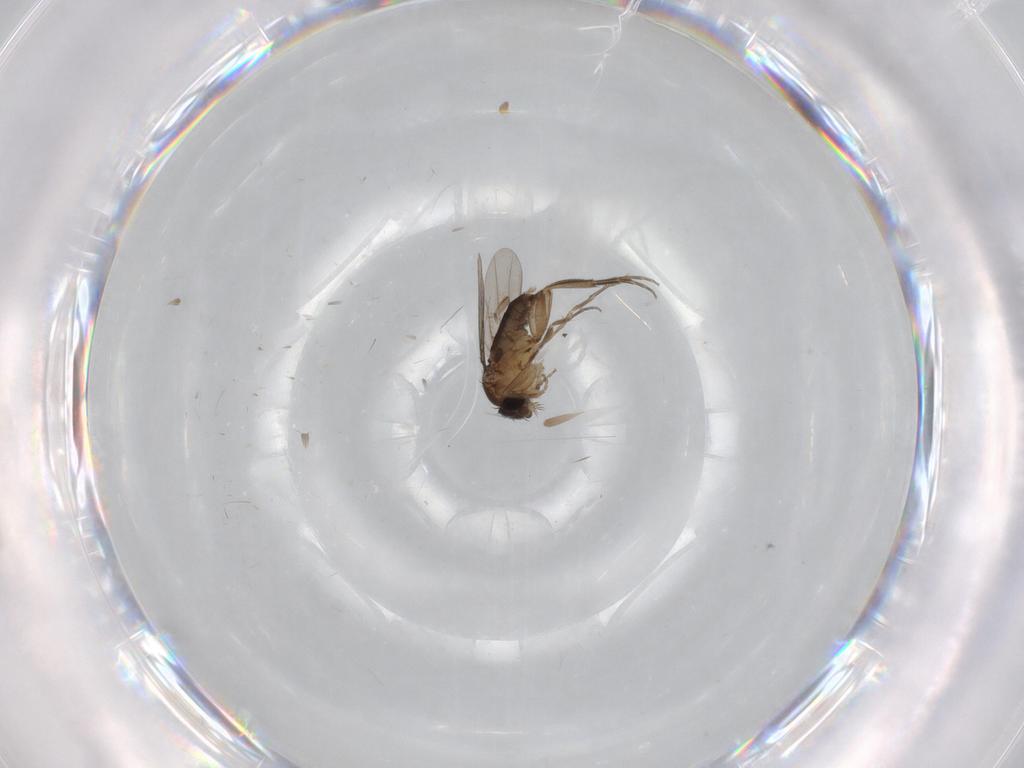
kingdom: Animalia
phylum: Arthropoda
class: Insecta
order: Diptera
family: Phoridae
